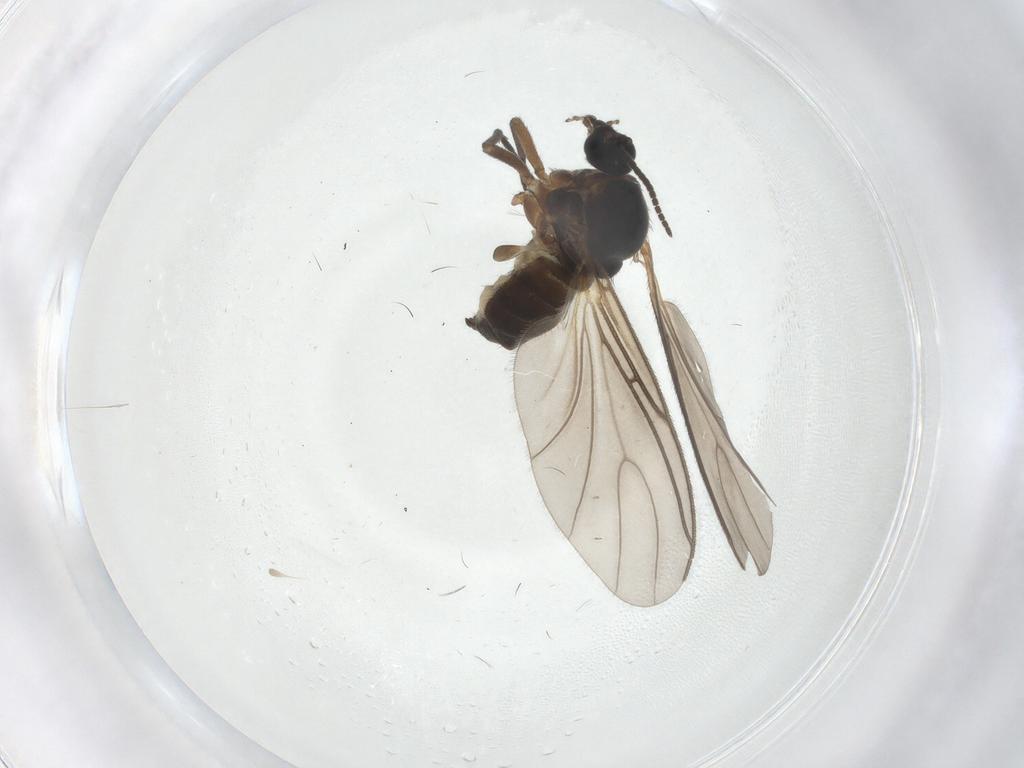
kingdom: Animalia
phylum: Arthropoda
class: Insecta
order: Diptera
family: Sciaridae
